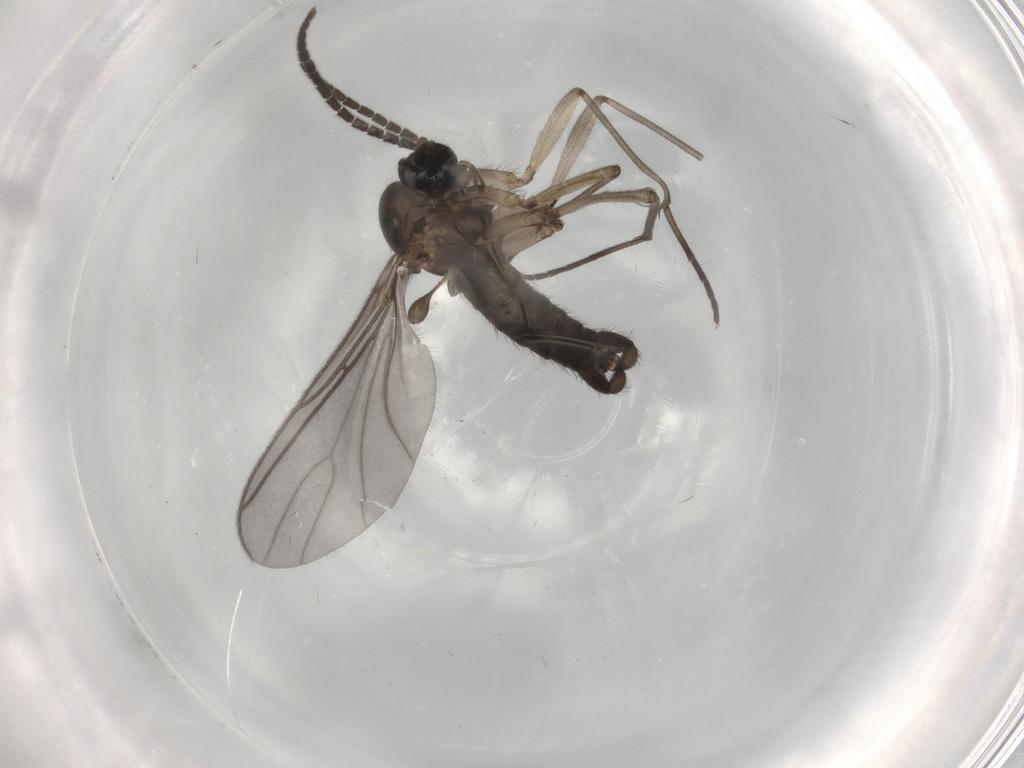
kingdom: Animalia
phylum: Arthropoda
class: Insecta
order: Diptera
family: Sciaridae
